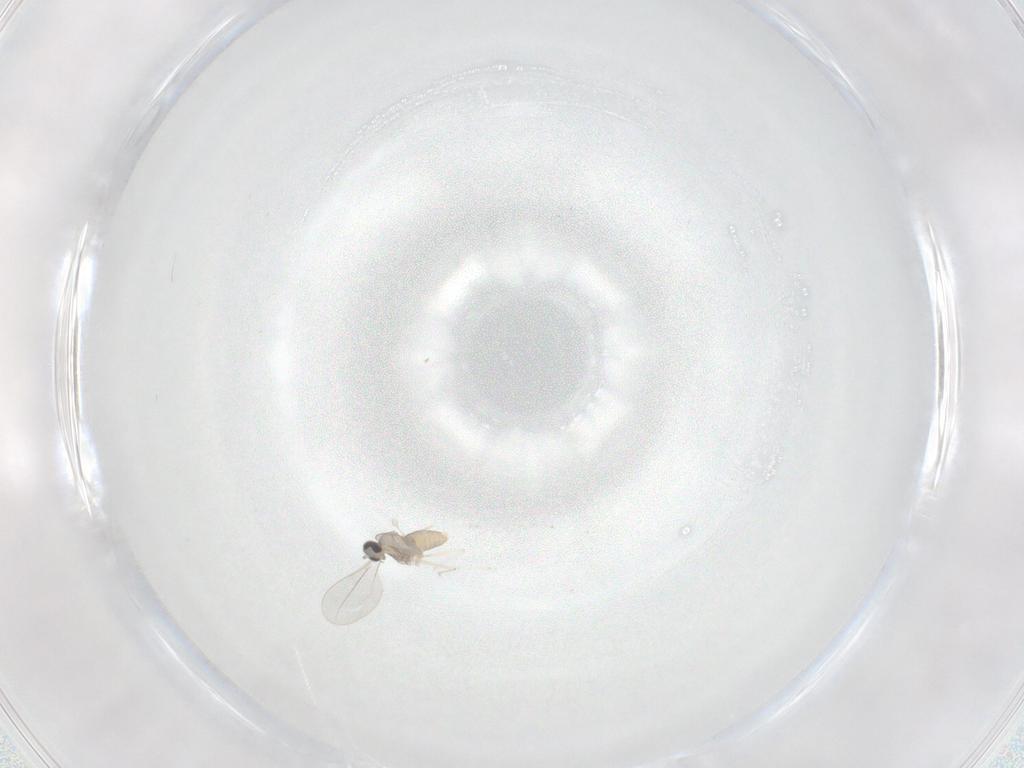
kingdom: Animalia
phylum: Arthropoda
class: Insecta
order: Diptera
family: Cecidomyiidae
